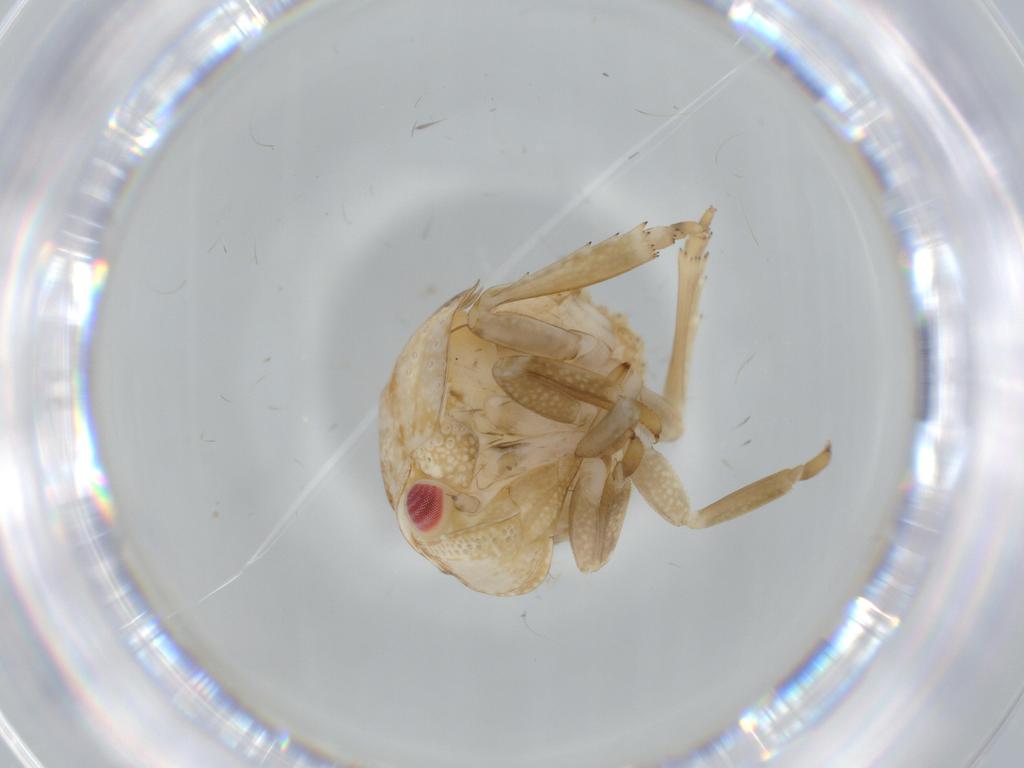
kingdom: Animalia
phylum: Arthropoda
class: Insecta
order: Hemiptera
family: Acanaloniidae
